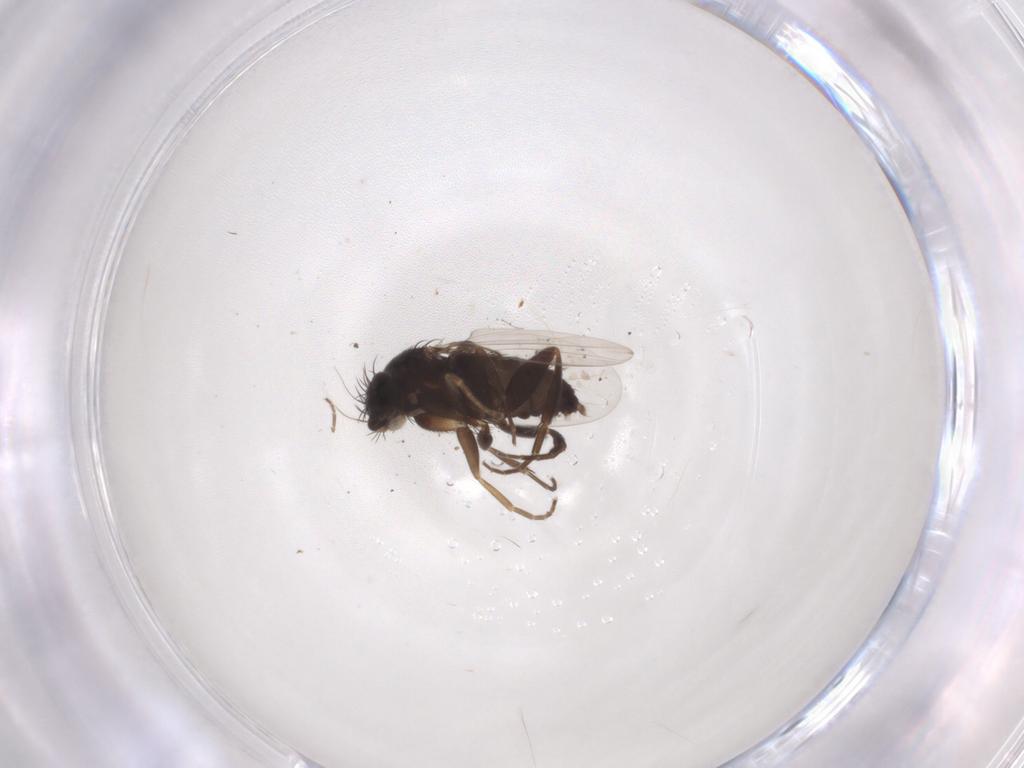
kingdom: Animalia
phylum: Arthropoda
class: Insecta
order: Diptera
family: Phoridae
